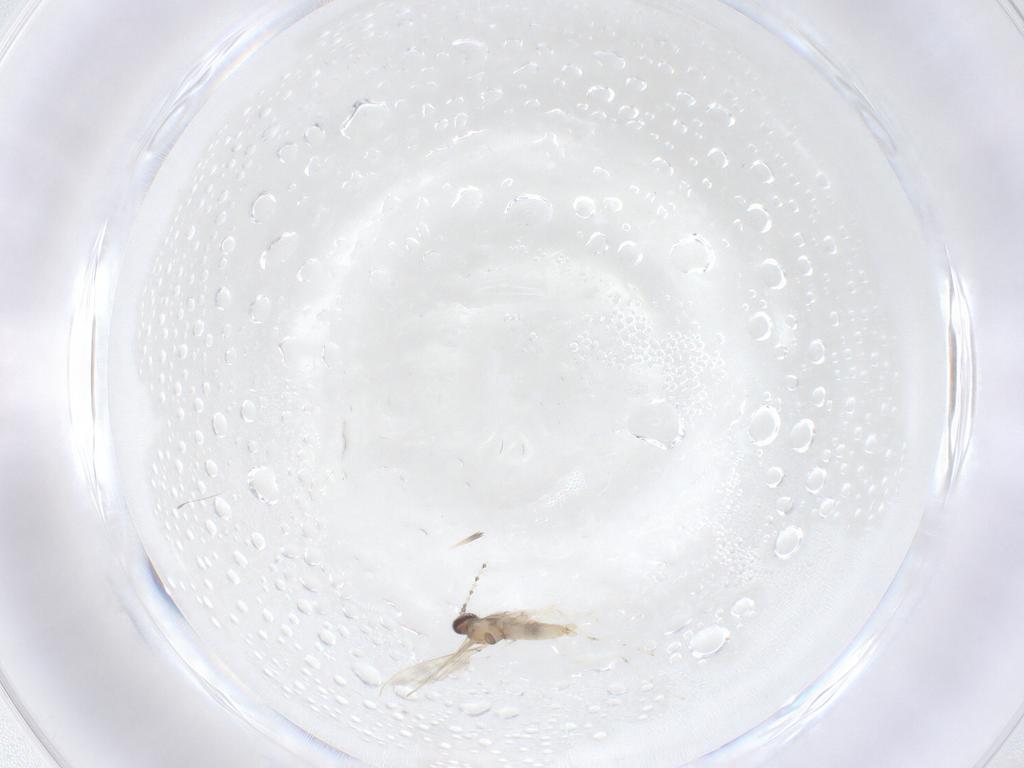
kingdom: Animalia
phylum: Arthropoda
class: Insecta
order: Diptera
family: Cecidomyiidae
